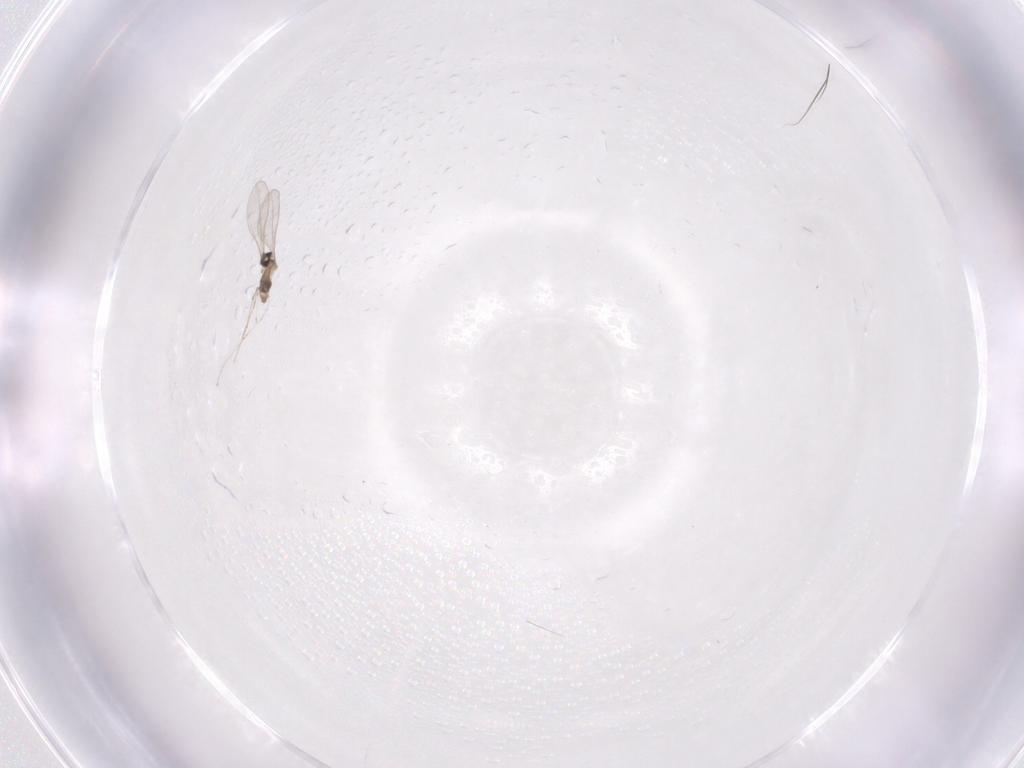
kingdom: Animalia
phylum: Arthropoda
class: Insecta
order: Diptera
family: Cecidomyiidae
